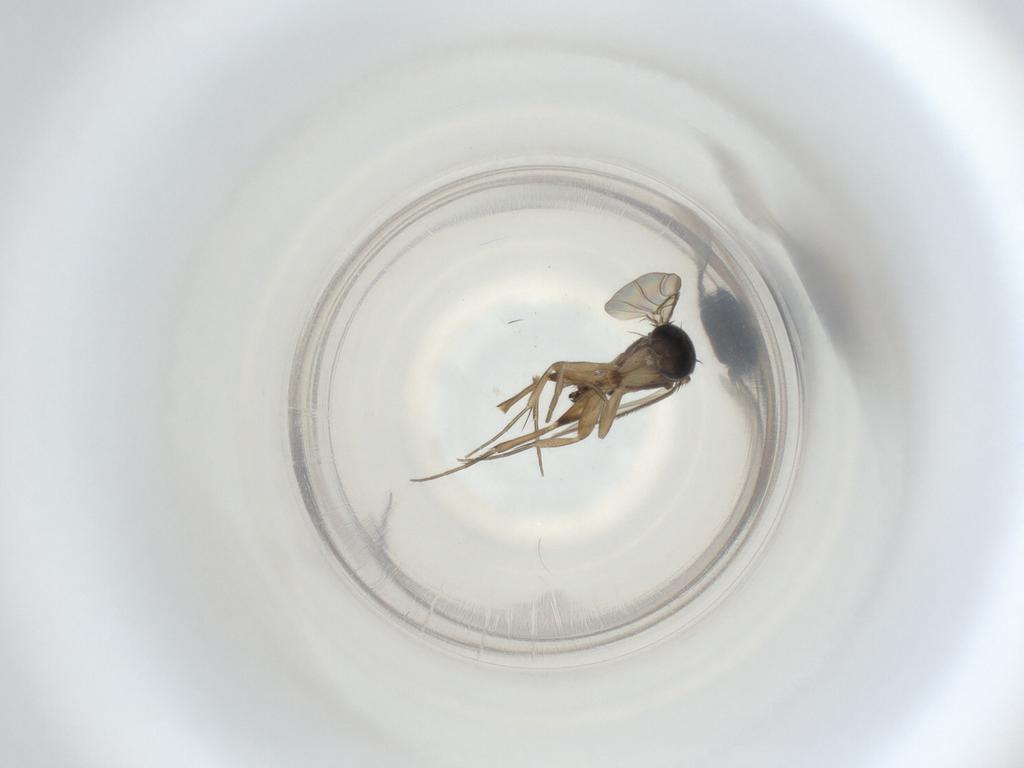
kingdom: Animalia
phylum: Arthropoda
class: Insecta
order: Diptera
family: Phoridae
